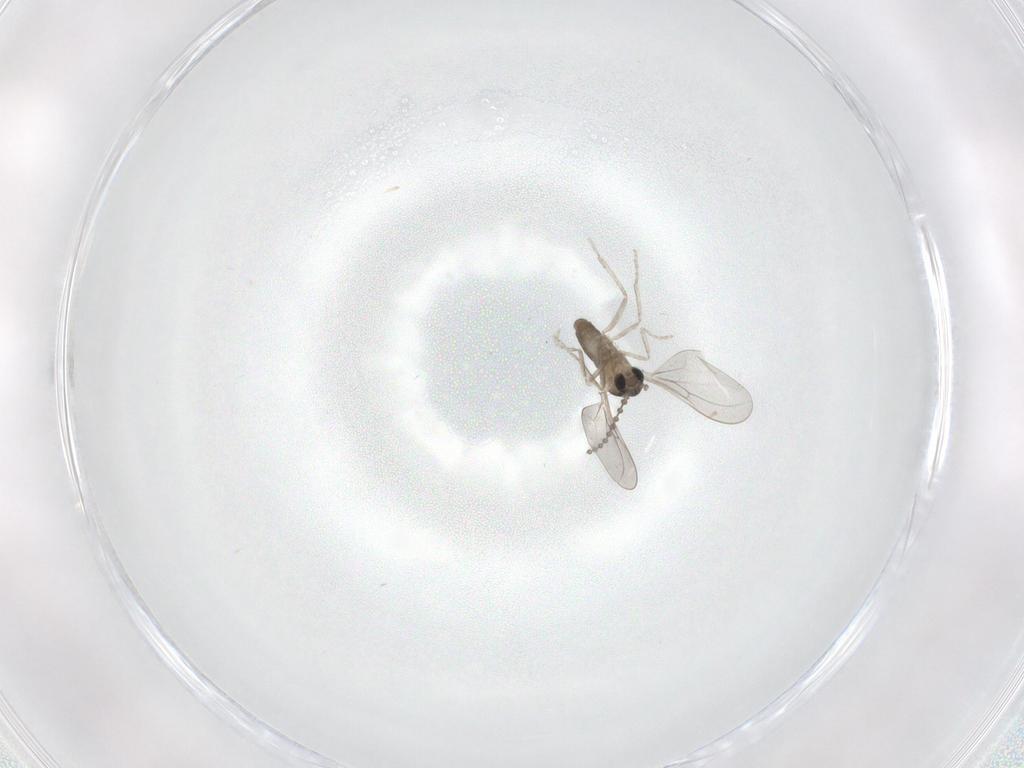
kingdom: Animalia
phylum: Arthropoda
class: Insecta
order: Diptera
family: Cecidomyiidae
